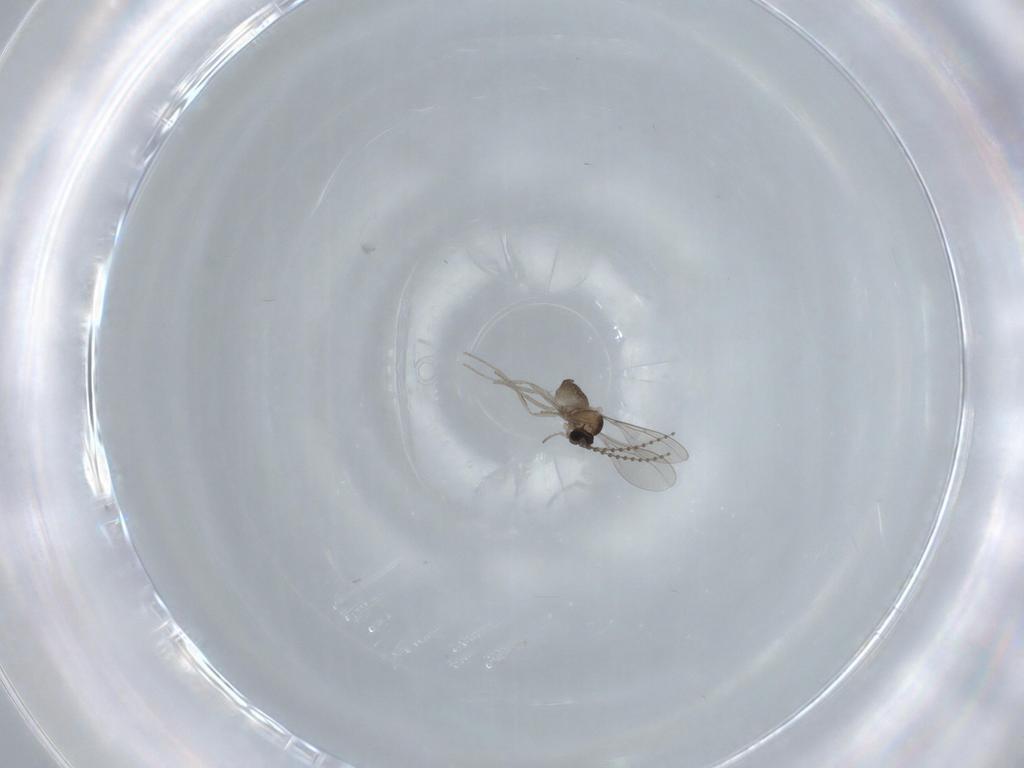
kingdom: Animalia
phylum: Arthropoda
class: Insecta
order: Diptera
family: Cecidomyiidae
